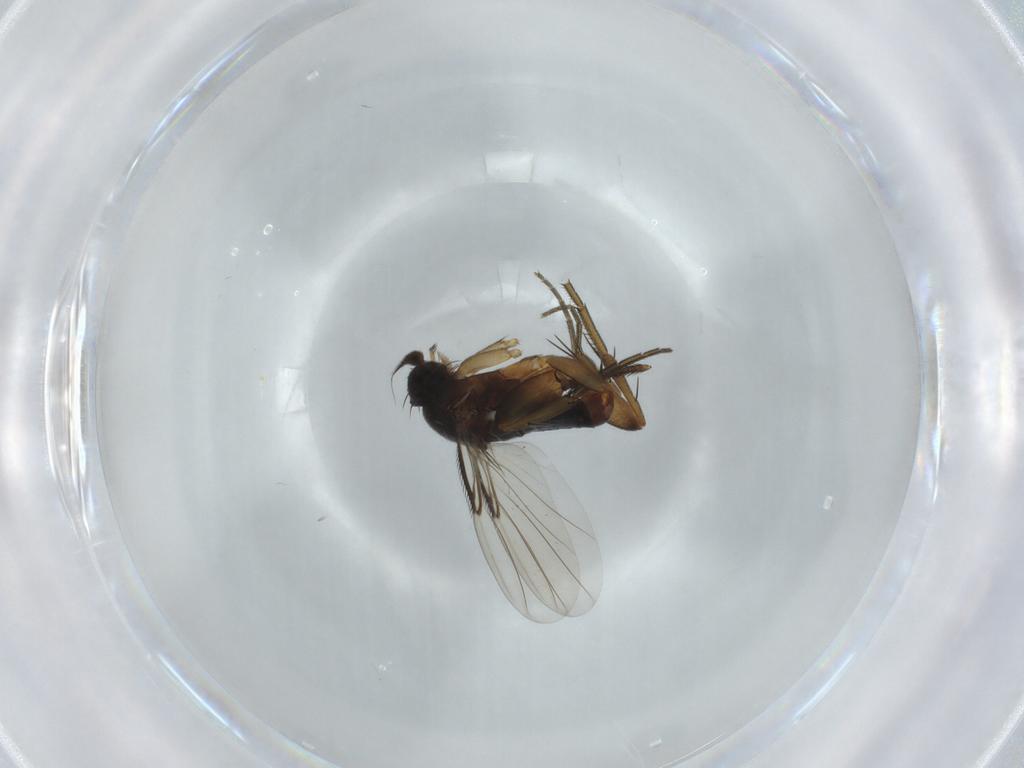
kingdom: Animalia
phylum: Arthropoda
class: Insecta
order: Diptera
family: Phoridae
